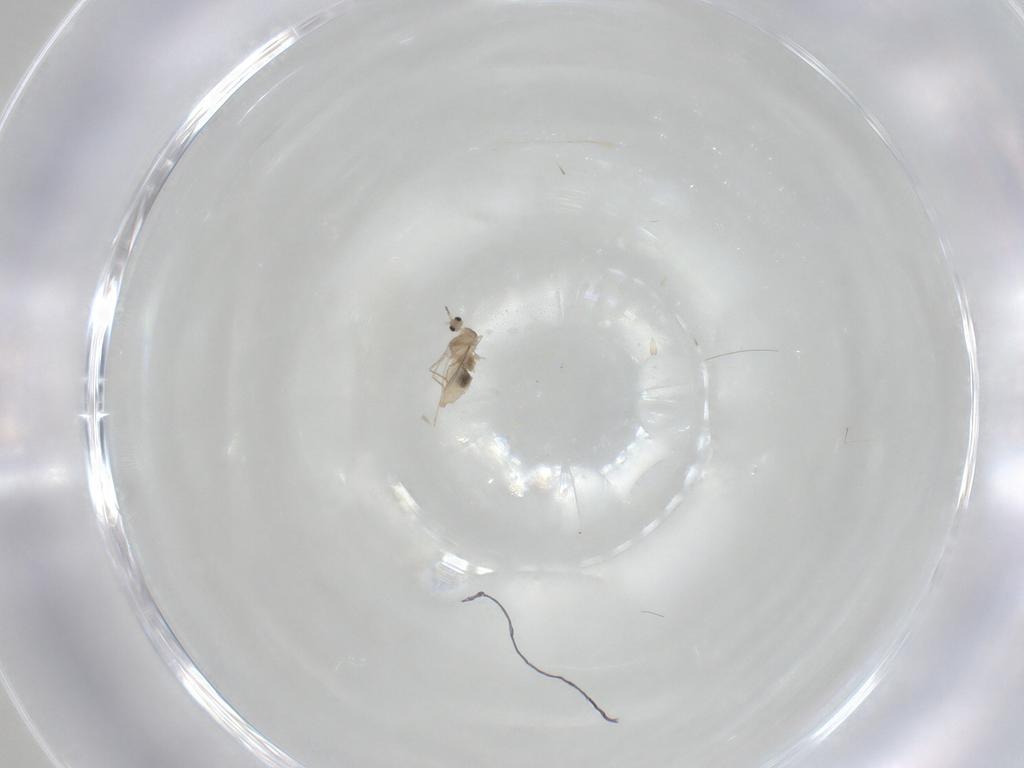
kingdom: Animalia
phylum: Arthropoda
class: Insecta
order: Diptera
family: Cecidomyiidae
